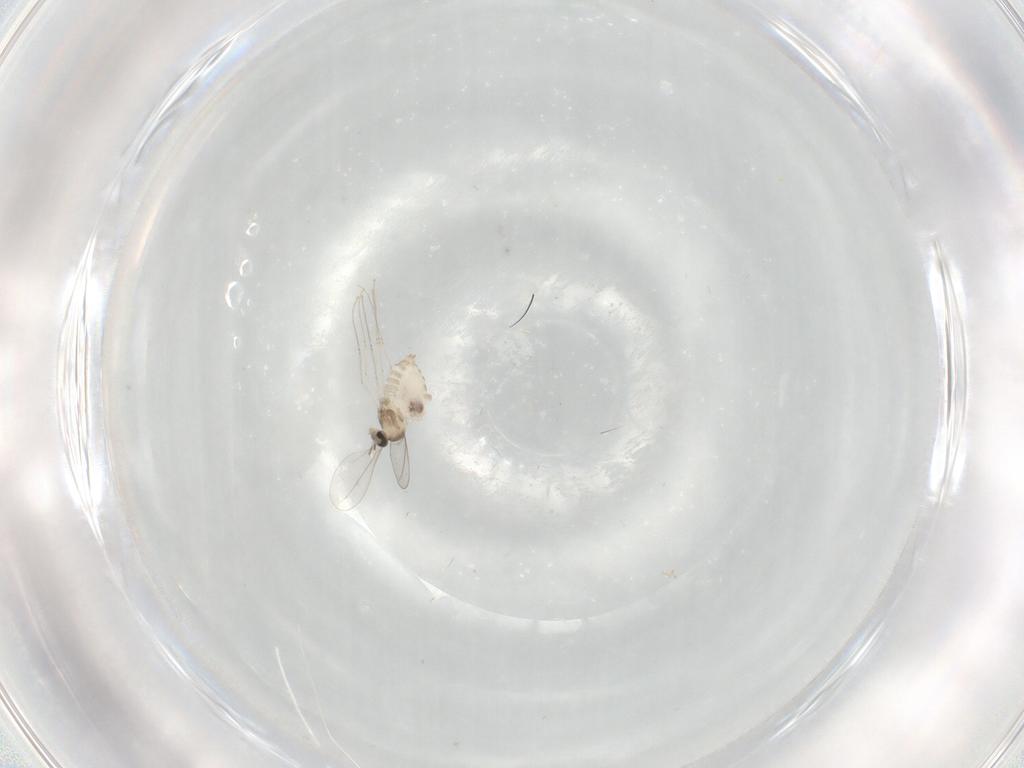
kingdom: Animalia
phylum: Arthropoda
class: Insecta
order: Diptera
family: Cecidomyiidae
